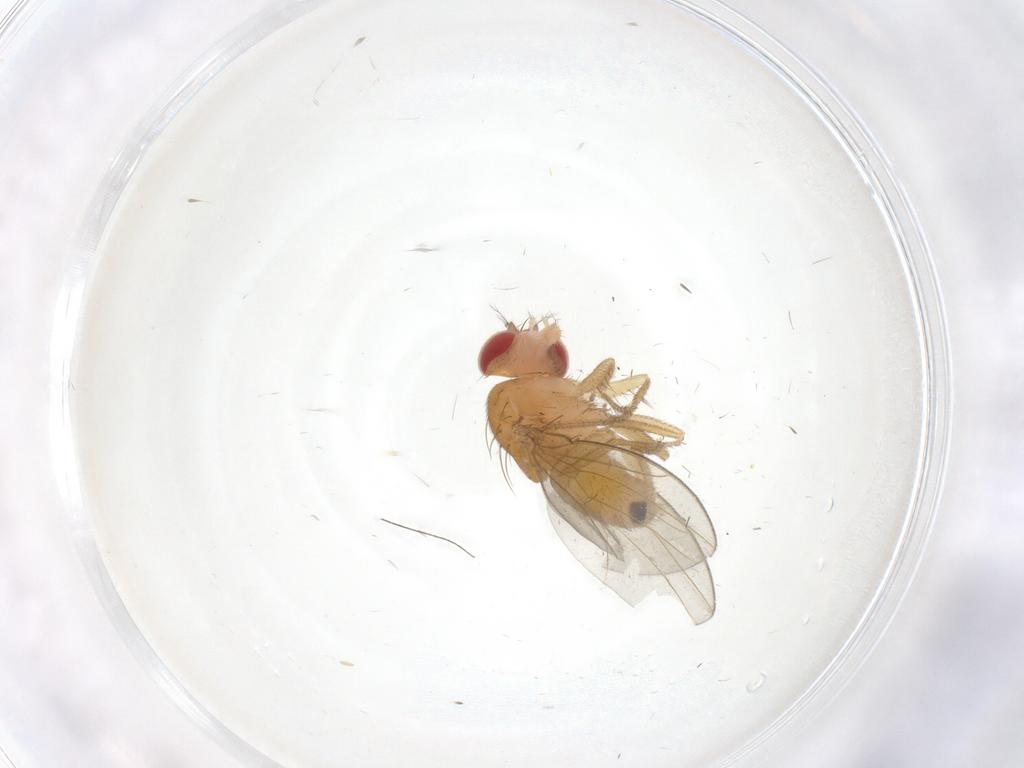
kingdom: Animalia
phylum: Arthropoda
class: Insecta
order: Diptera
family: Drosophilidae
